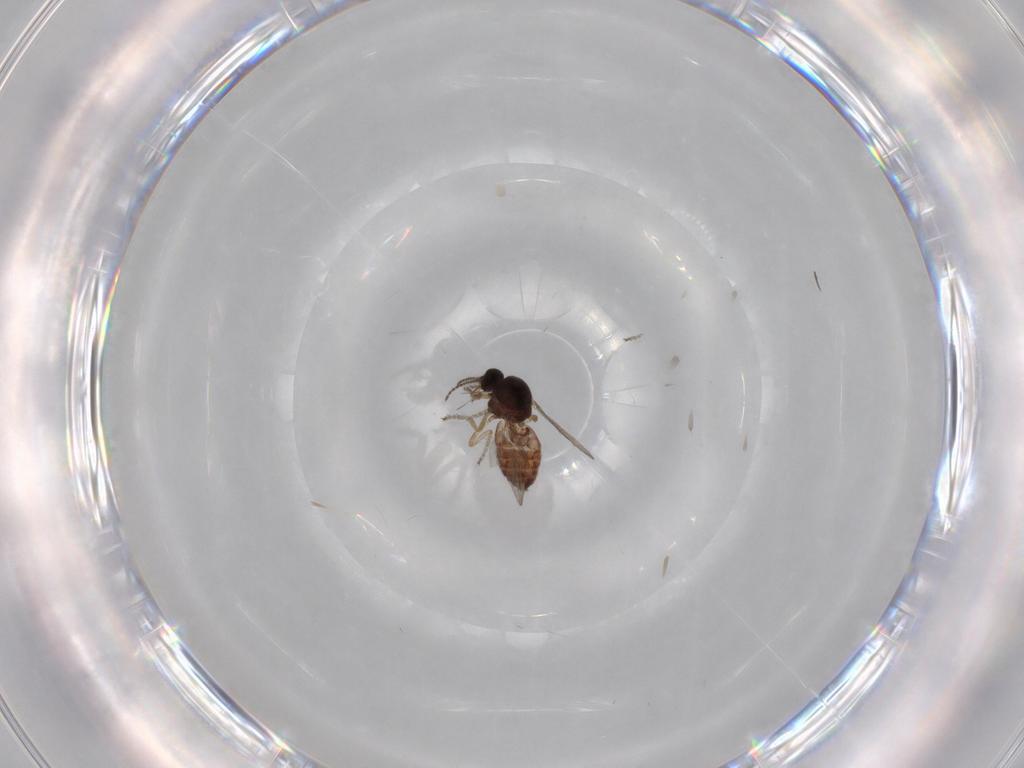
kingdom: Animalia
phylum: Arthropoda
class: Insecta
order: Diptera
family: Ceratopogonidae
